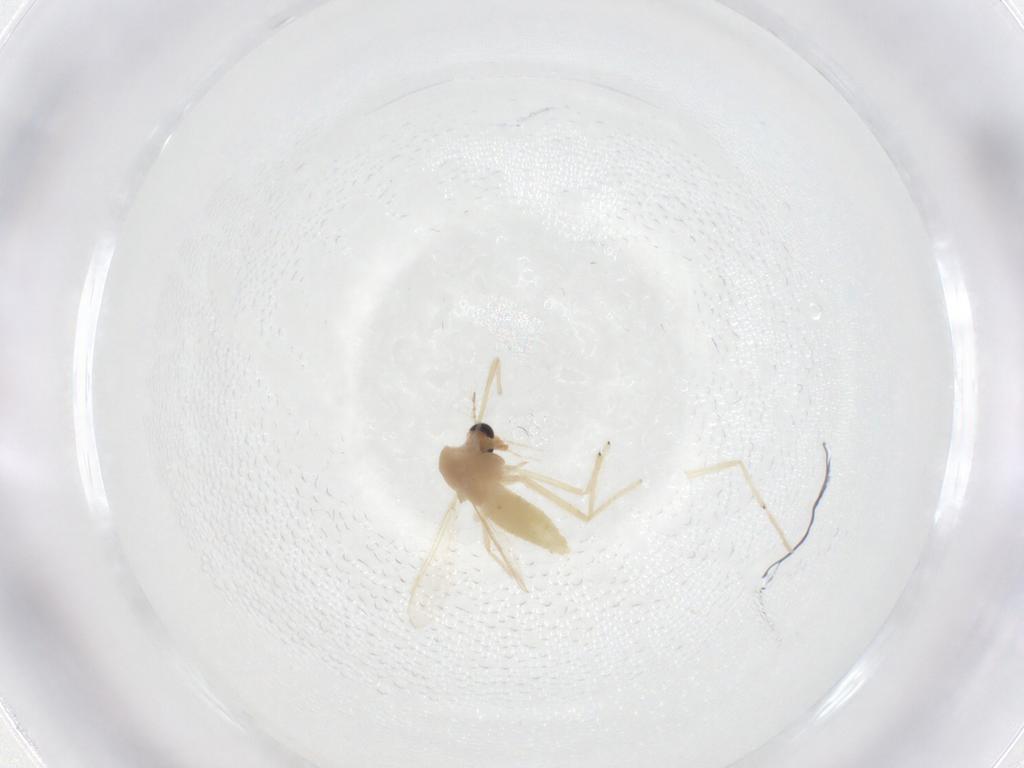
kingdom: Animalia
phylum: Arthropoda
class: Insecta
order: Diptera
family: Chironomidae
